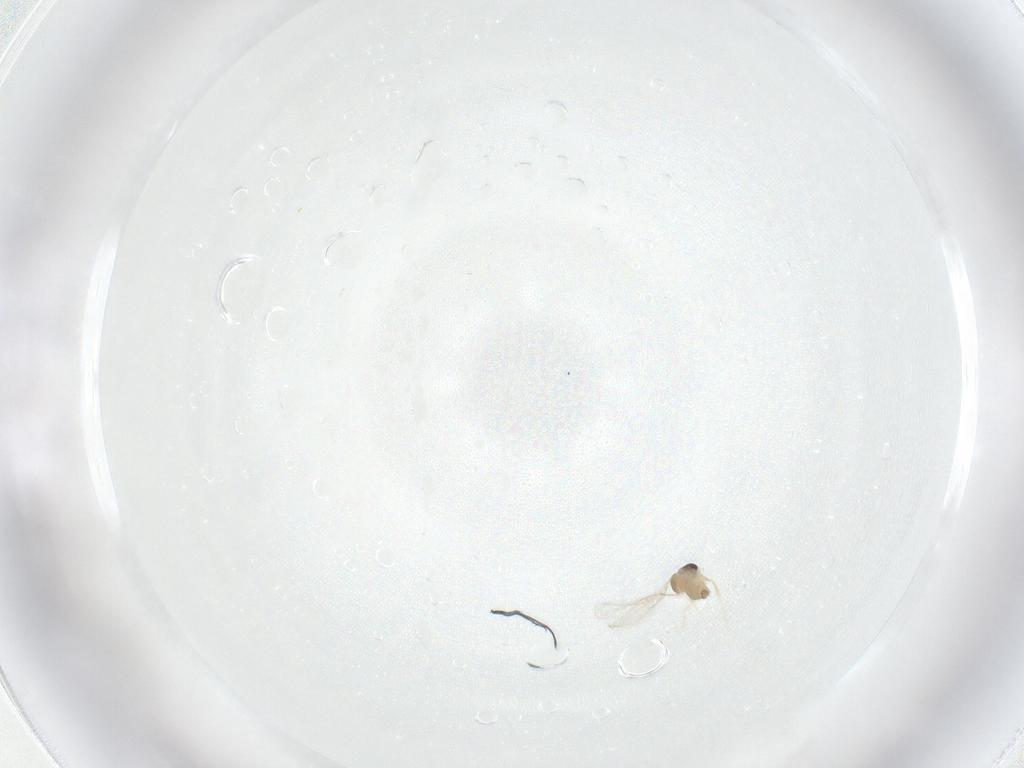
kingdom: Animalia
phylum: Arthropoda
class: Insecta
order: Diptera
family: Cecidomyiidae
